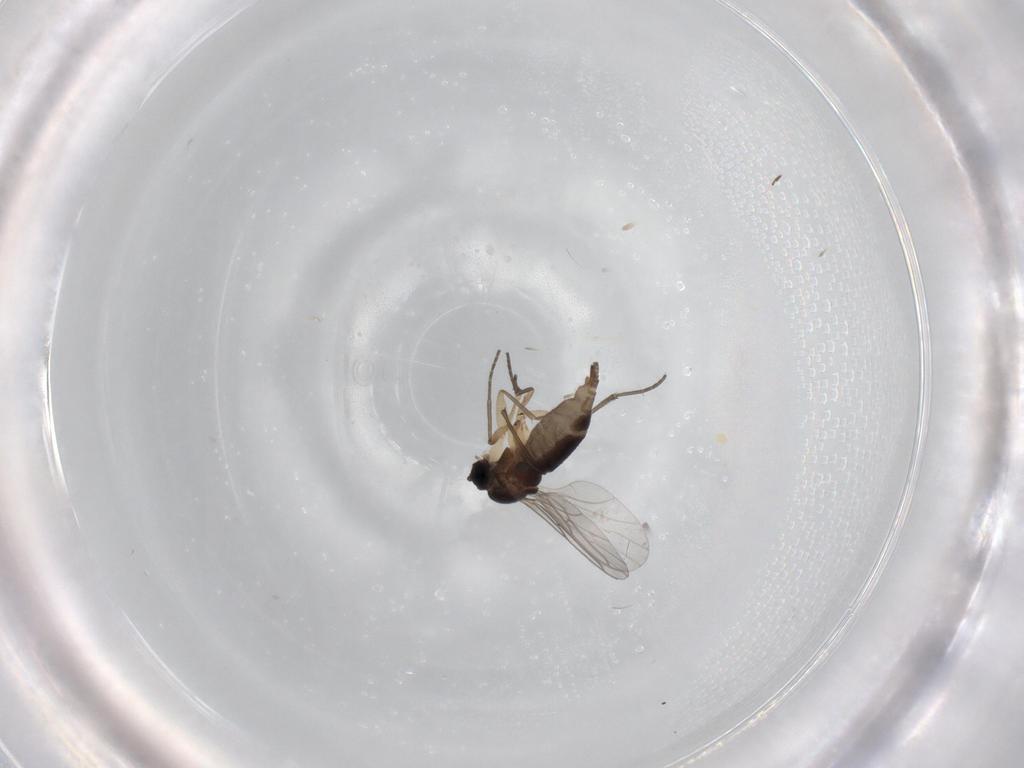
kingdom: Animalia
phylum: Arthropoda
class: Insecta
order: Diptera
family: Sciaridae
